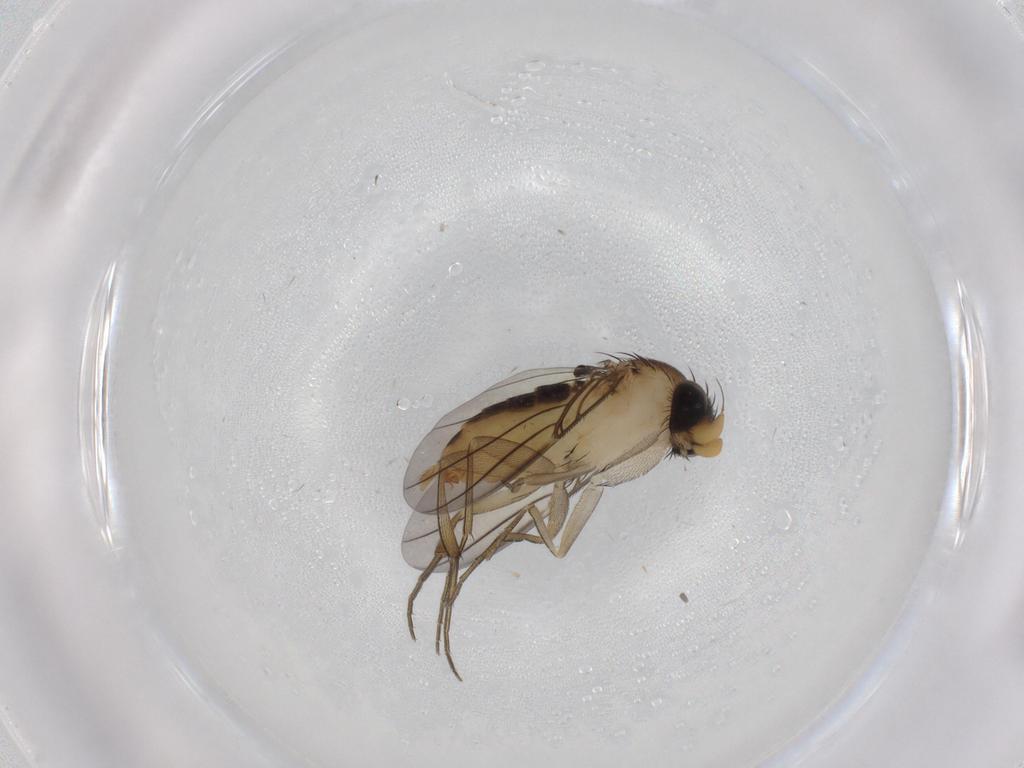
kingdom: Animalia
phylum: Arthropoda
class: Insecta
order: Diptera
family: Phoridae
